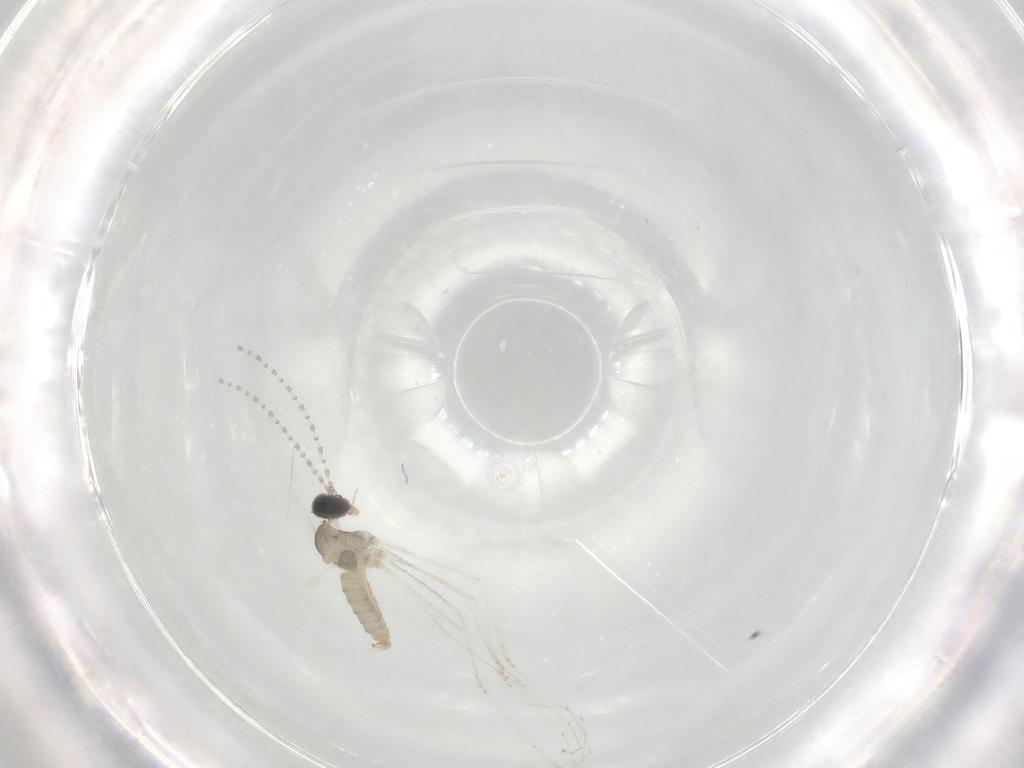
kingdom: Animalia
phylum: Arthropoda
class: Insecta
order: Diptera
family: Cecidomyiidae
